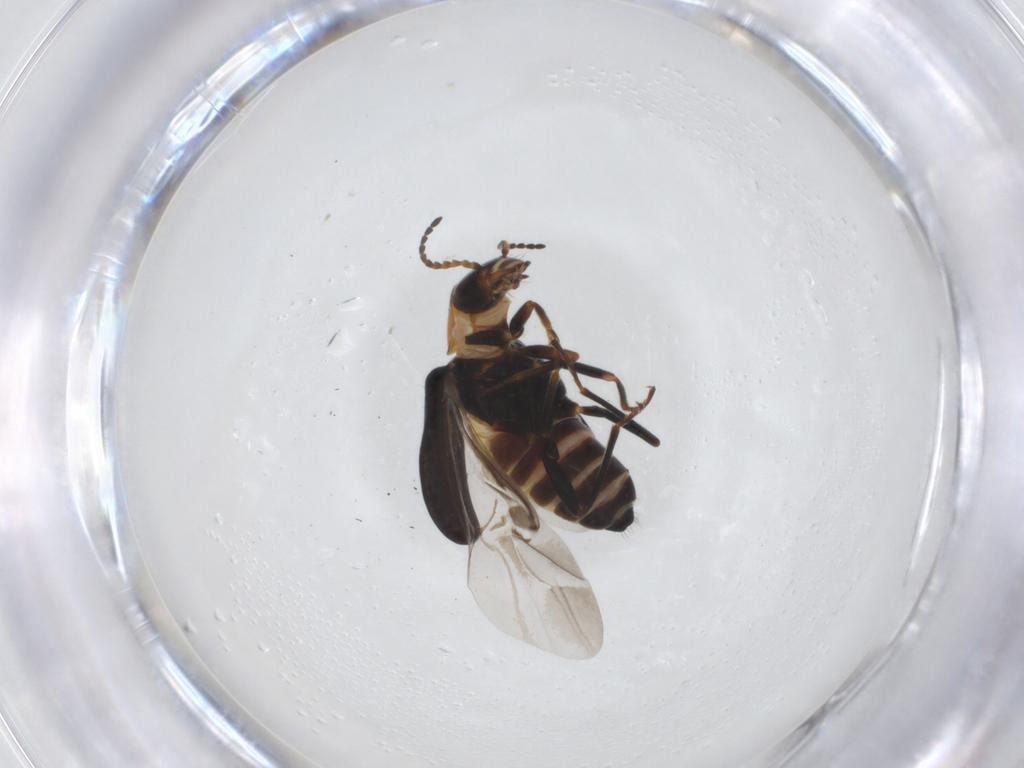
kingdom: Animalia
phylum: Arthropoda
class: Insecta
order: Coleoptera
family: Melyridae
